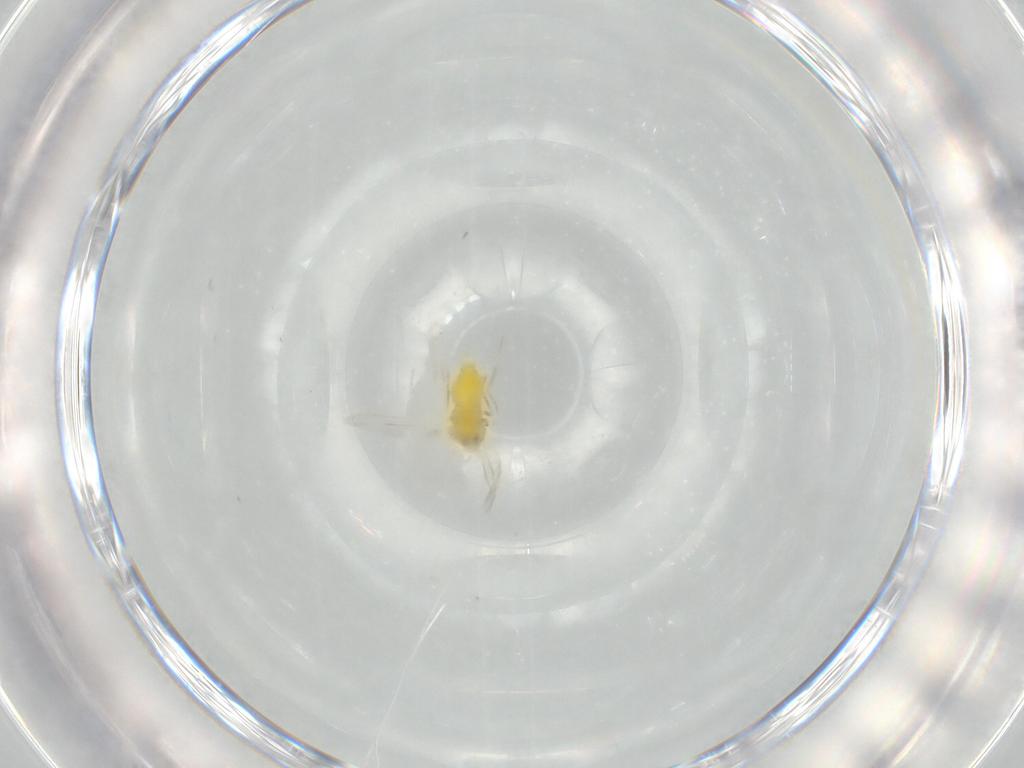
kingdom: Animalia
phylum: Arthropoda
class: Insecta
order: Hemiptera
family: Aleyrodidae
